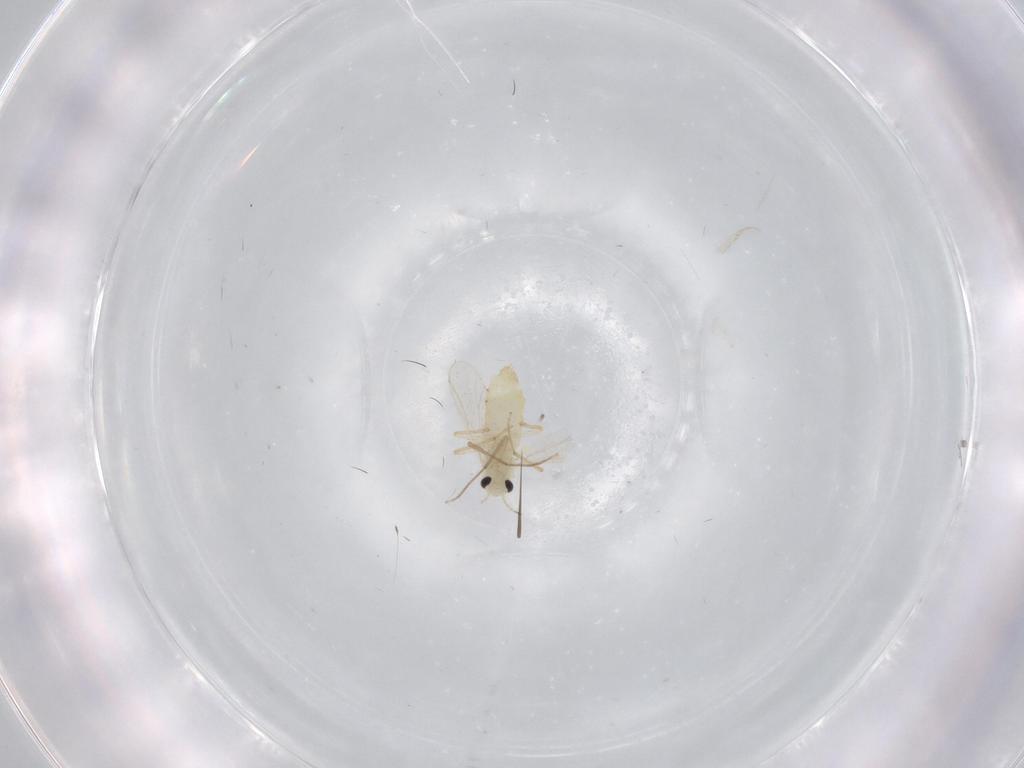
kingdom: Animalia
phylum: Arthropoda
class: Insecta
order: Diptera
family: Chironomidae
